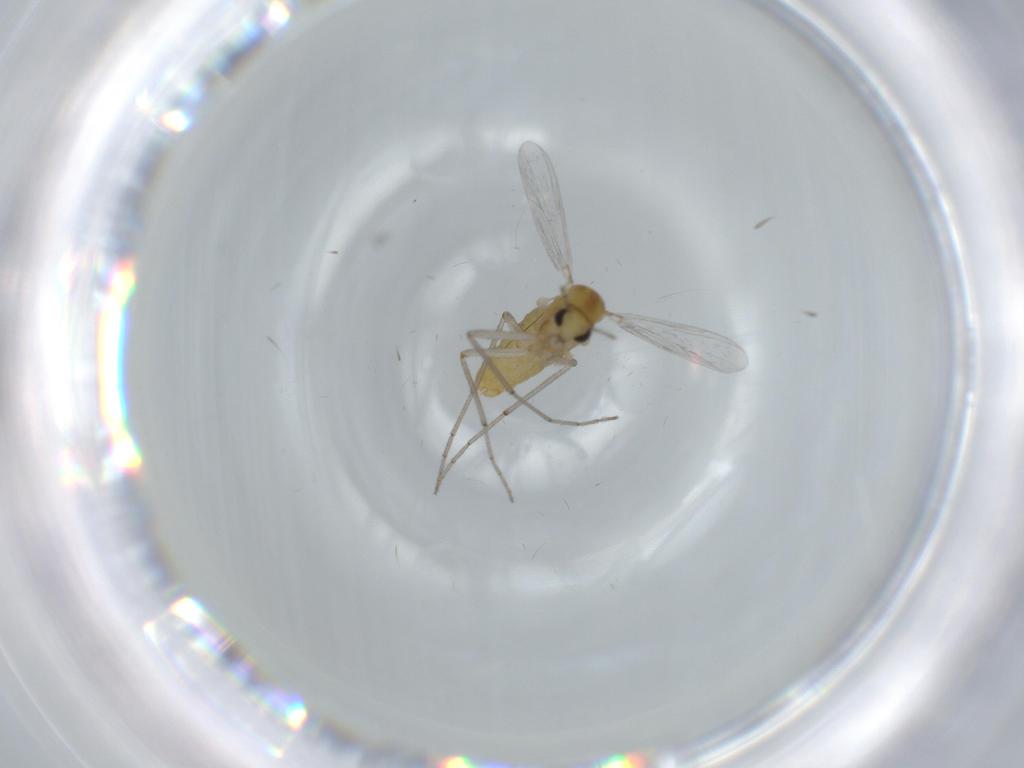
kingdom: Animalia
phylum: Arthropoda
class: Insecta
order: Diptera
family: Chironomidae
